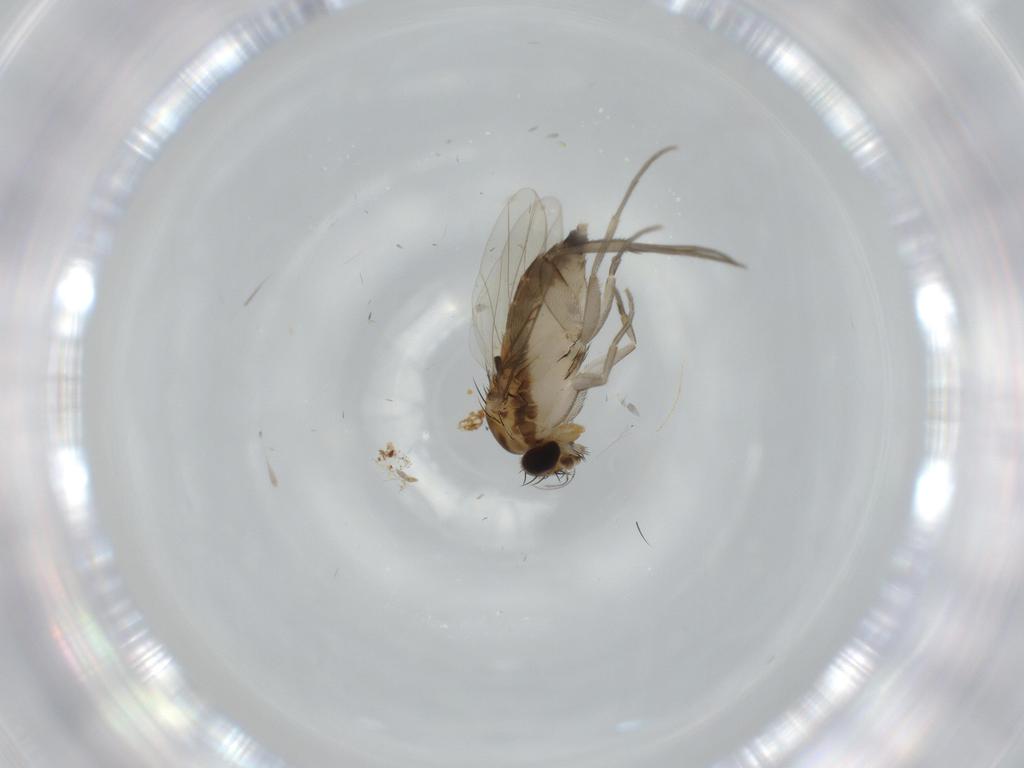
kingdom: Animalia
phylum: Arthropoda
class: Insecta
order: Diptera
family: Phoridae
